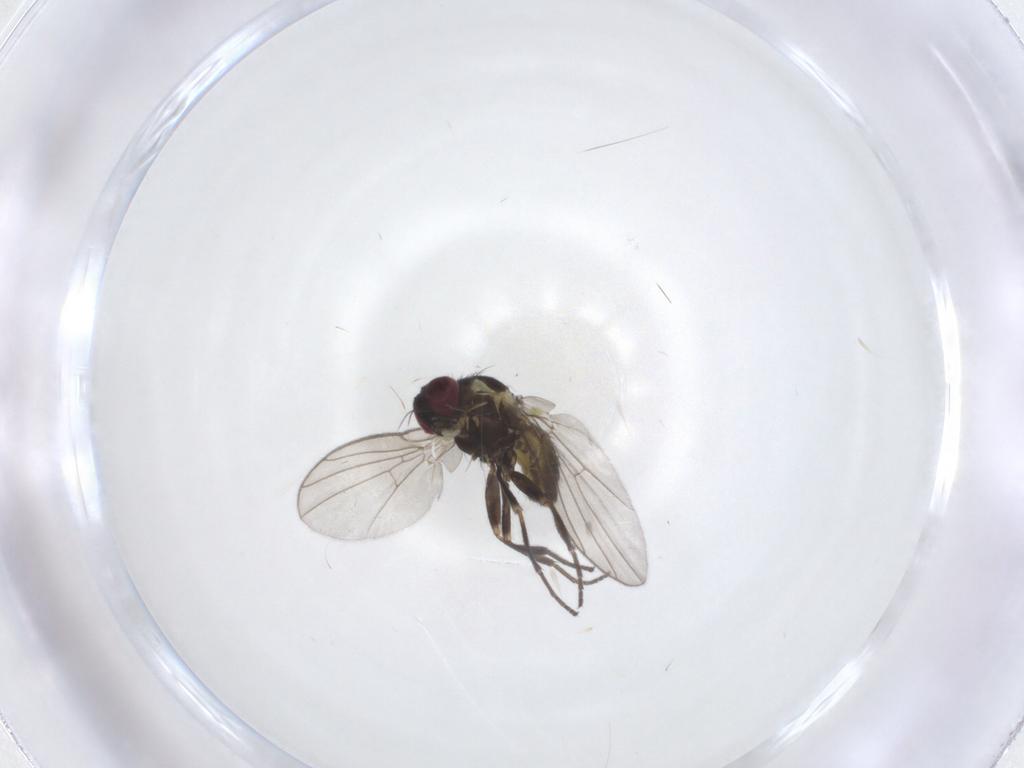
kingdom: Animalia
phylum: Arthropoda
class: Insecta
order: Diptera
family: Agromyzidae
